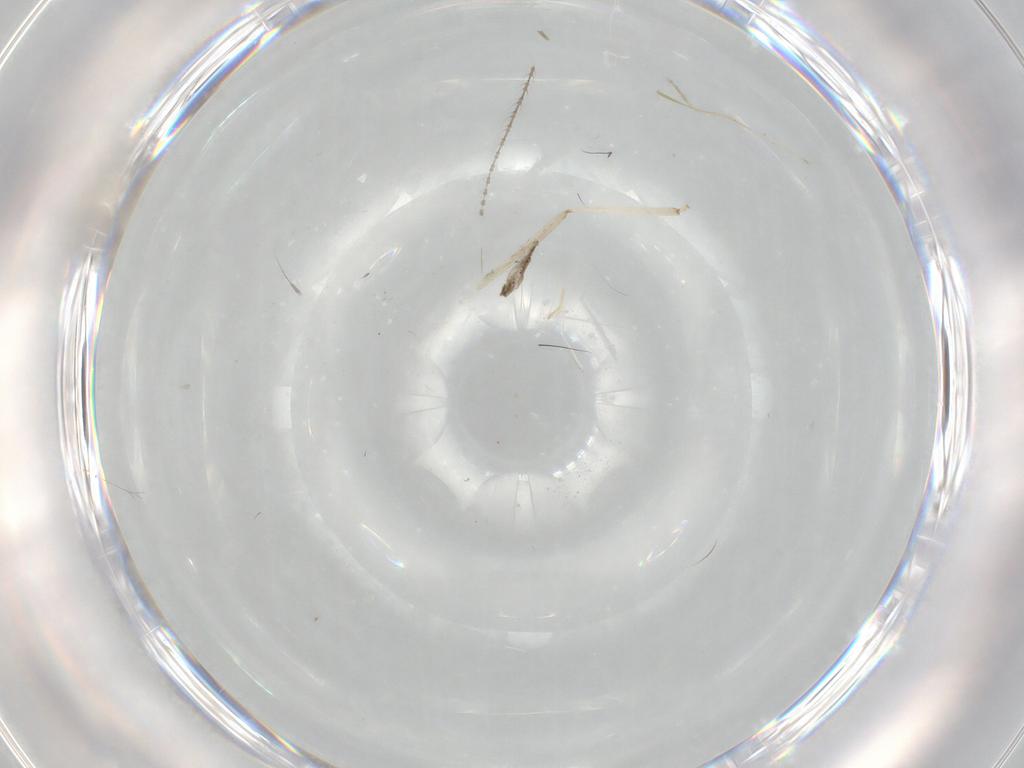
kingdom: Animalia
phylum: Arthropoda
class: Insecta
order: Diptera
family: Cecidomyiidae
